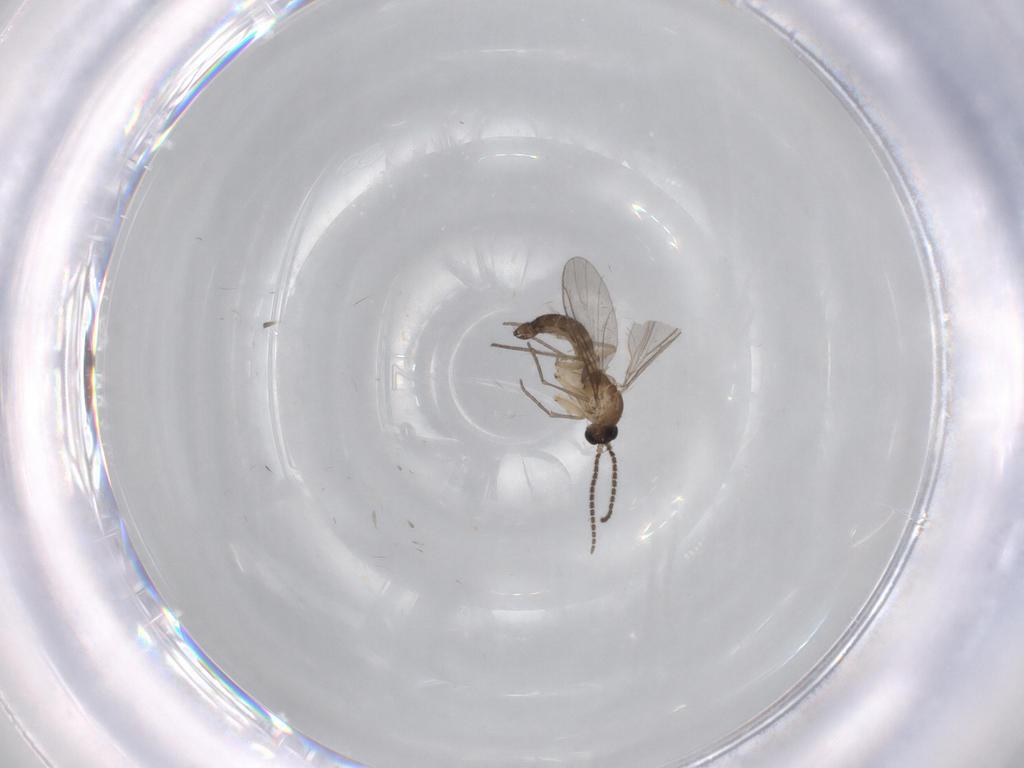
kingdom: Animalia
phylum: Arthropoda
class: Insecta
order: Diptera
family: Sciaridae
